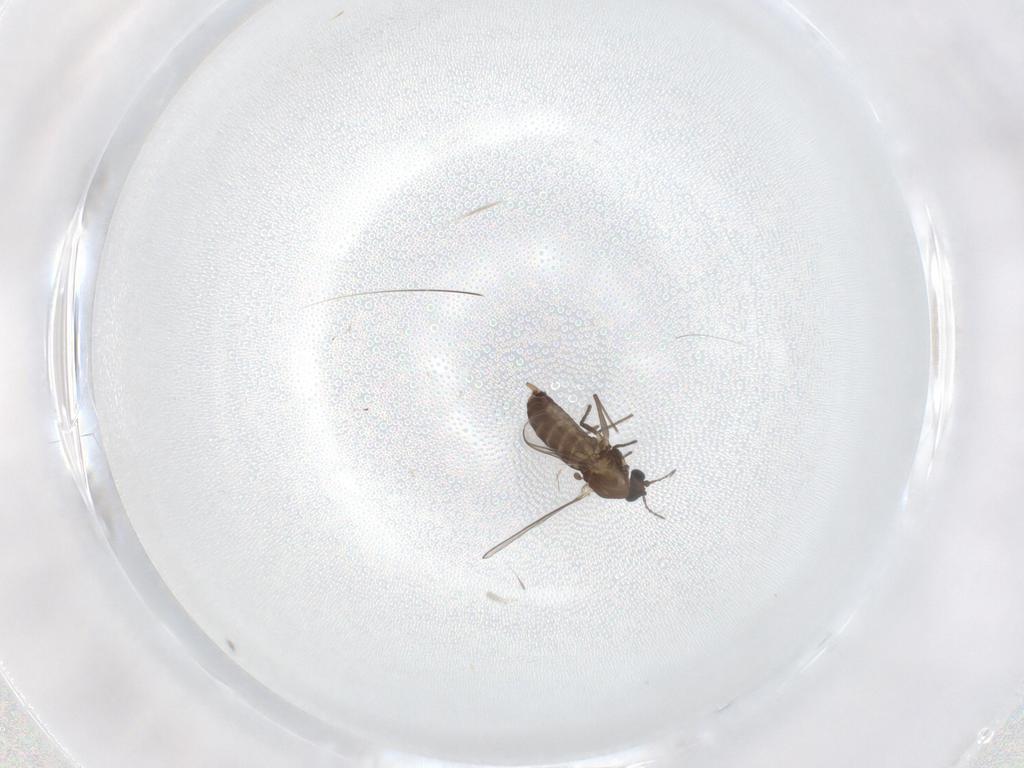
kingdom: Animalia
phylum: Arthropoda
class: Insecta
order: Diptera
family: Chironomidae
